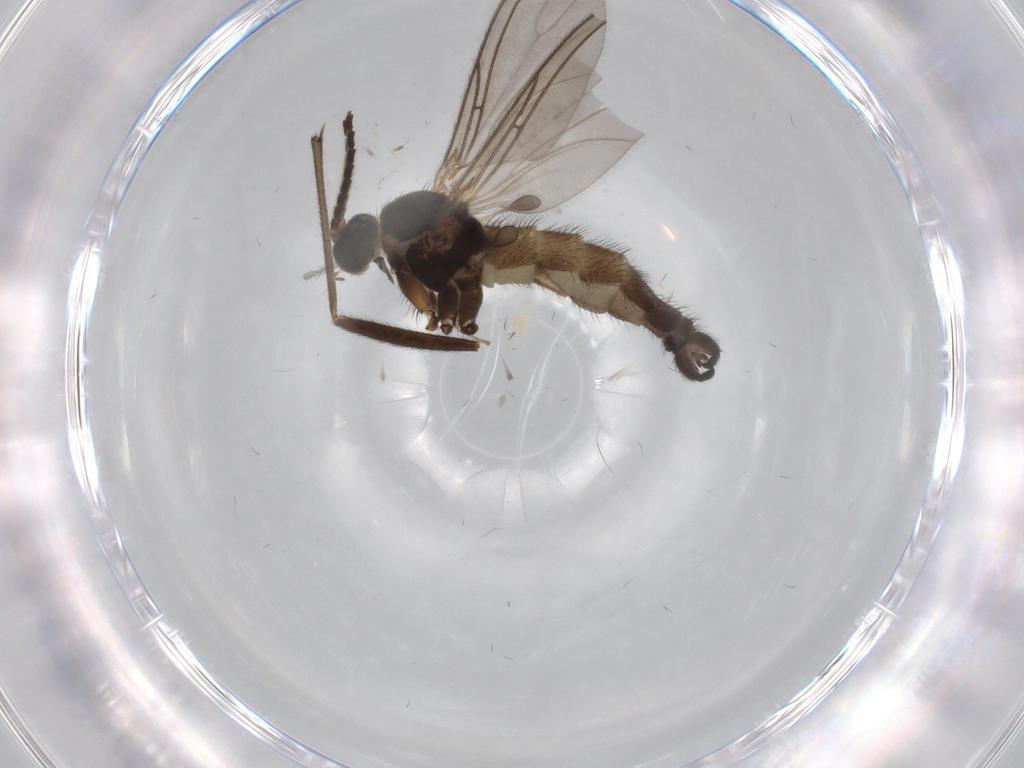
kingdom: Animalia
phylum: Arthropoda
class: Insecta
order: Diptera
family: Sciaridae
